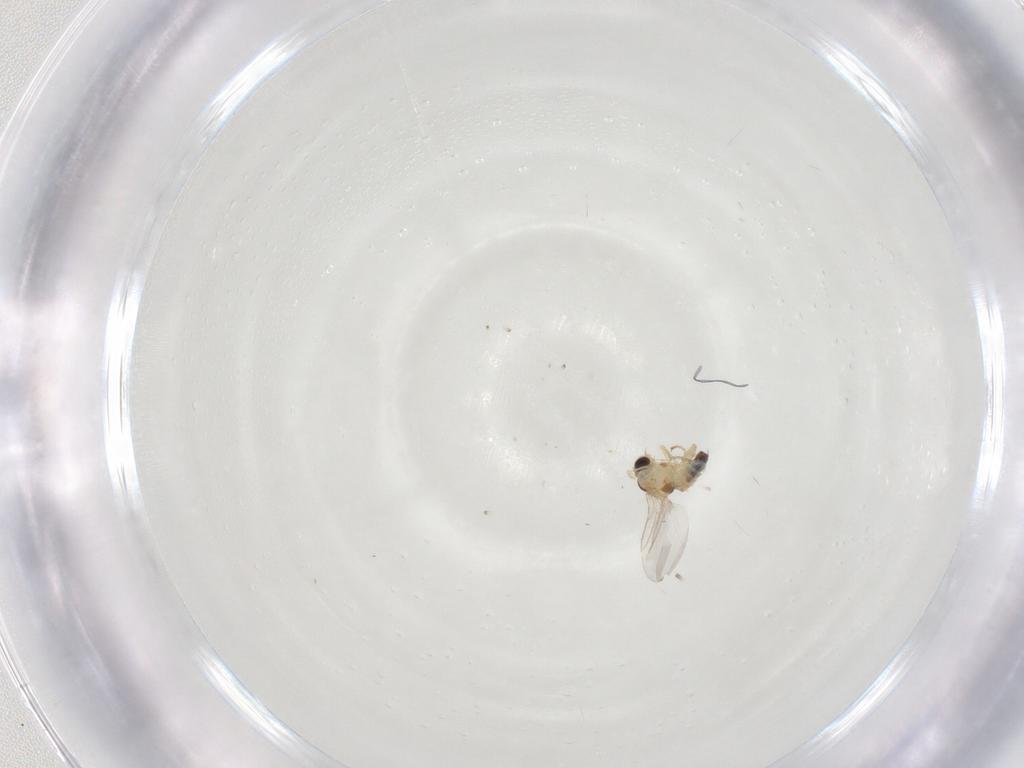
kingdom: Animalia
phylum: Arthropoda
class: Insecta
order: Diptera
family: Agromyzidae
